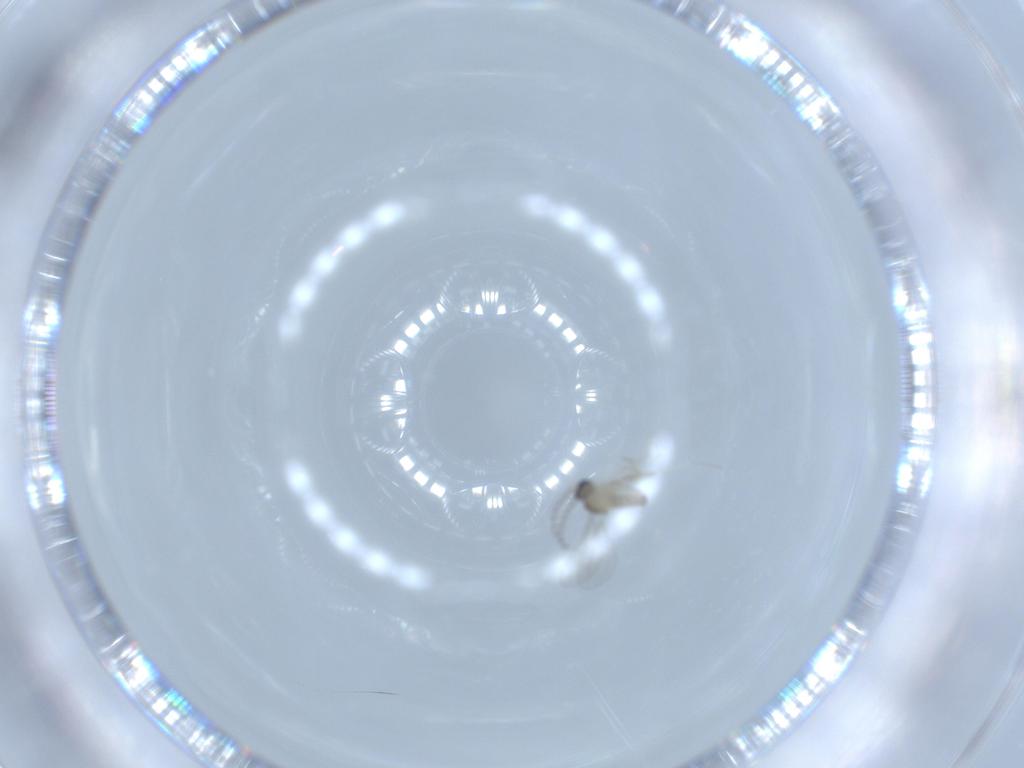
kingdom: Animalia
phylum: Arthropoda
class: Insecta
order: Diptera
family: Cecidomyiidae
